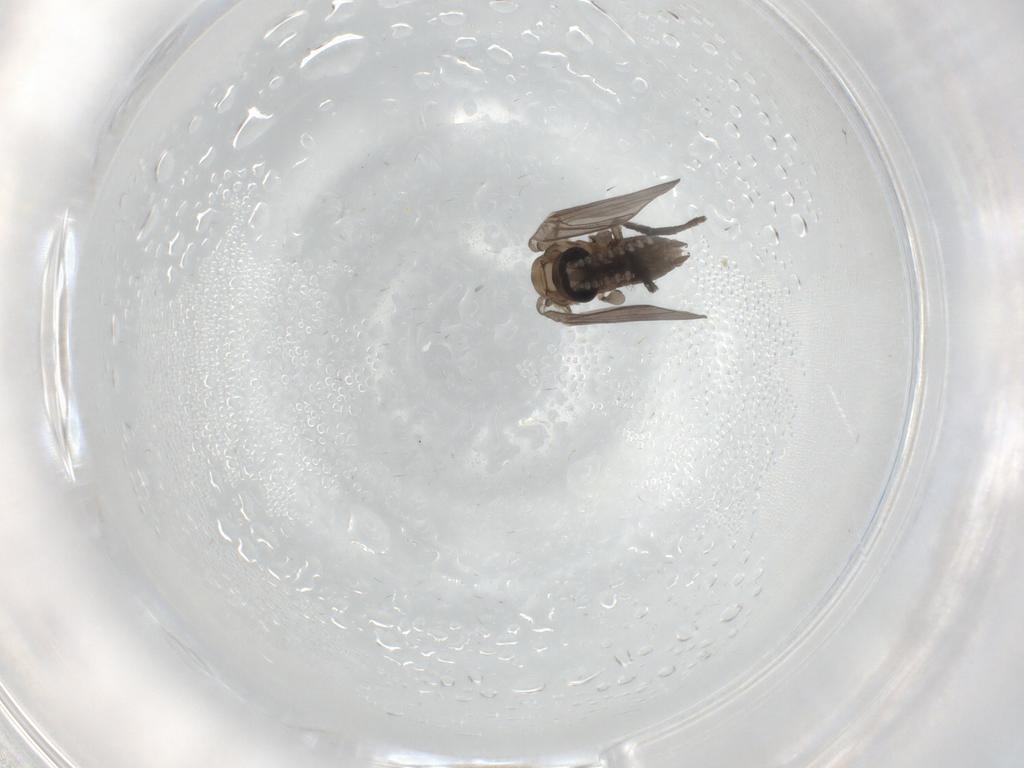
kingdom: Animalia
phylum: Arthropoda
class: Insecta
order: Diptera
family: Psychodidae
